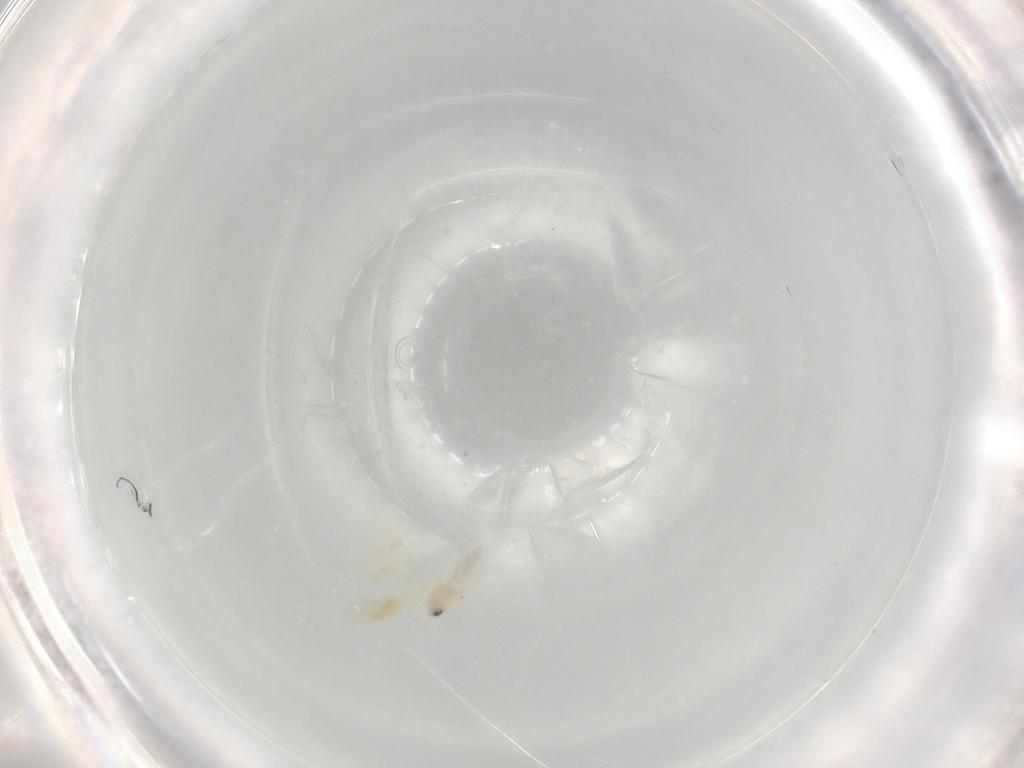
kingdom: Animalia
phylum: Arthropoda
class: Insecta
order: Hemiptera
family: Aleyrodidae
